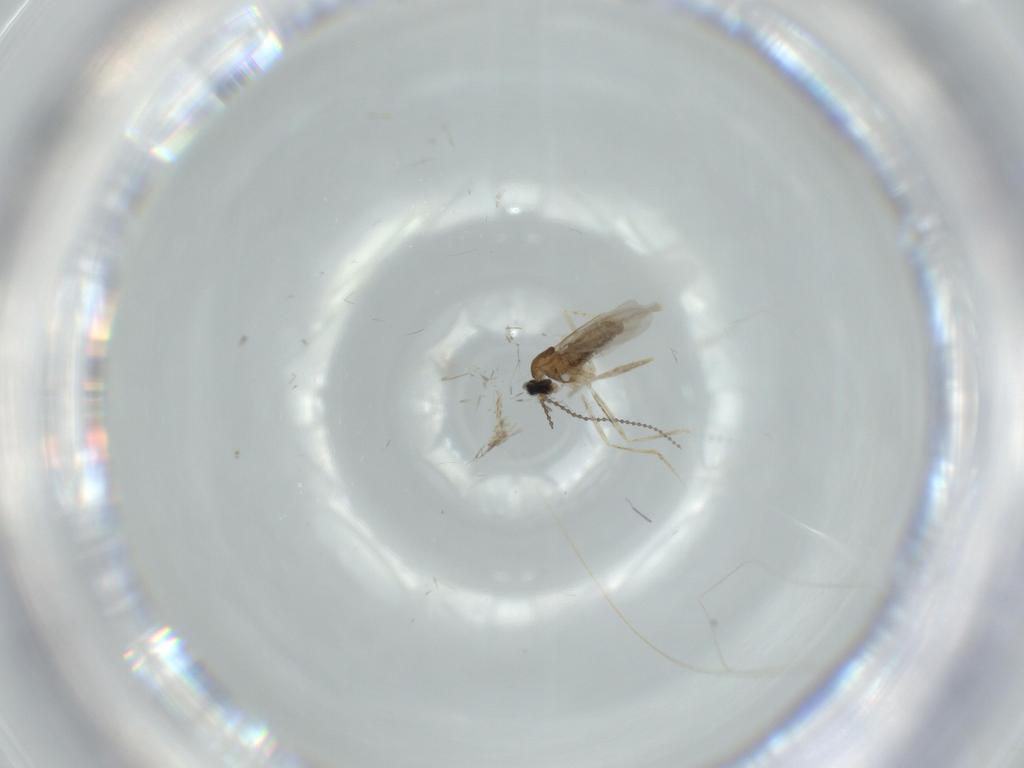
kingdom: Animalia
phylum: Arthropoda
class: Insecta
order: Diptera
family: Cecidomyiidae
